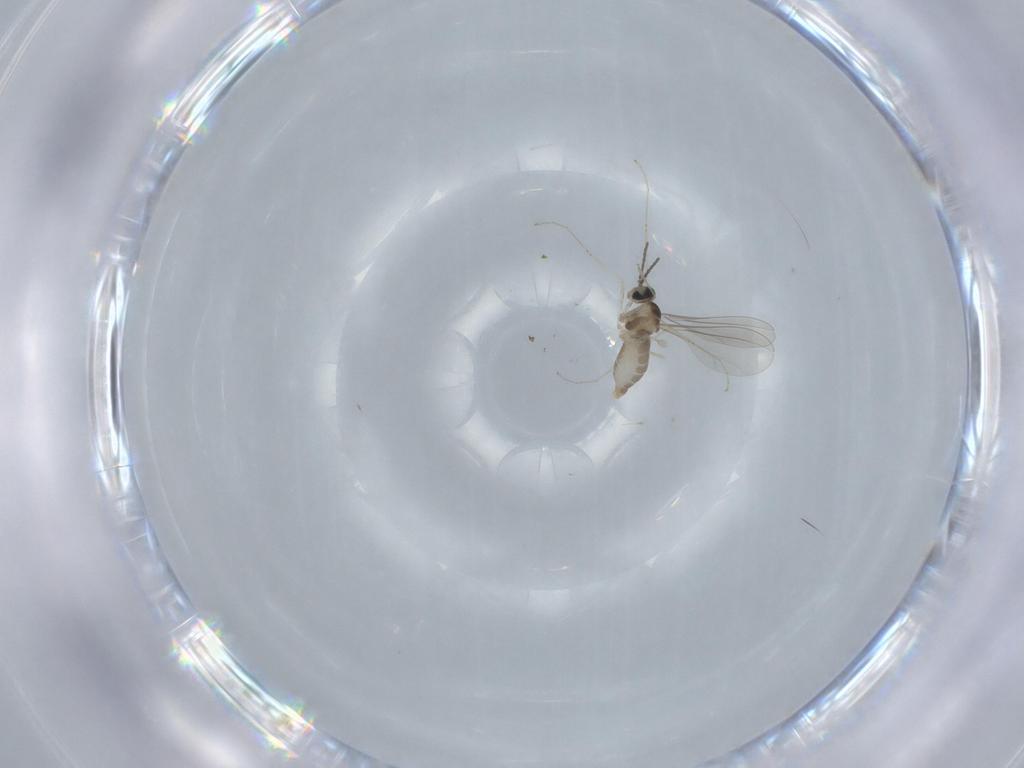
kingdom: Animalia
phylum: Arthropoda
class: Insecta
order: Diptera
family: Cecidomyiidae
